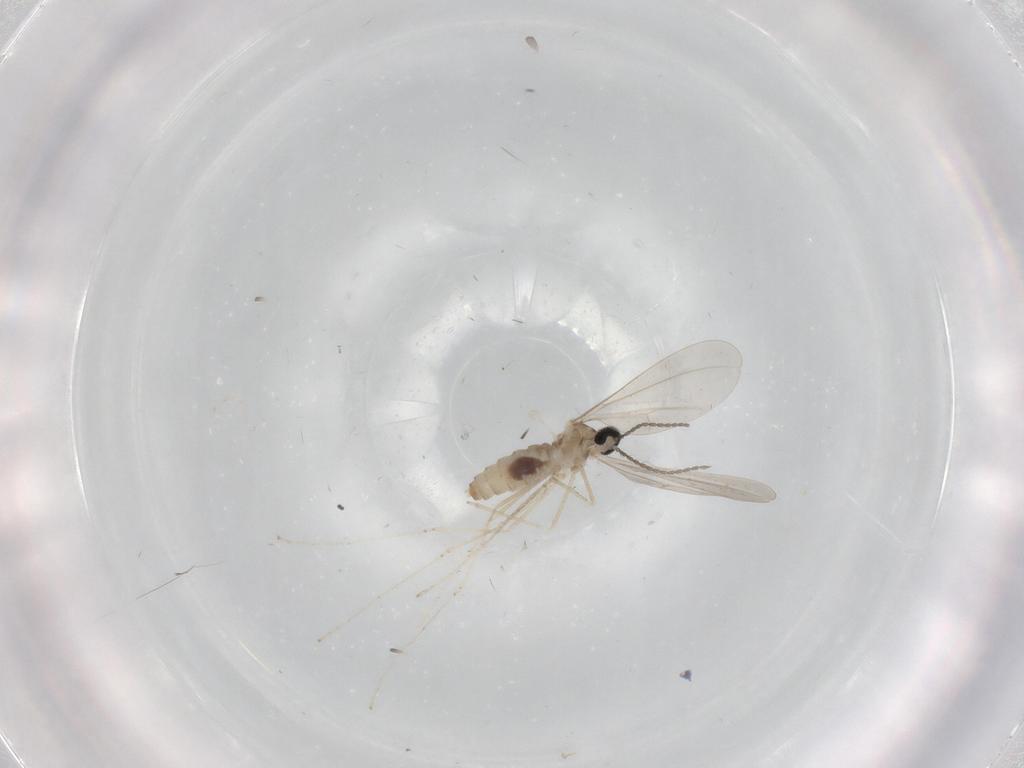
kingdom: Animalia
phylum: Arthropoda
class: Insecta
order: Diptera
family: Cecidomyiidae
